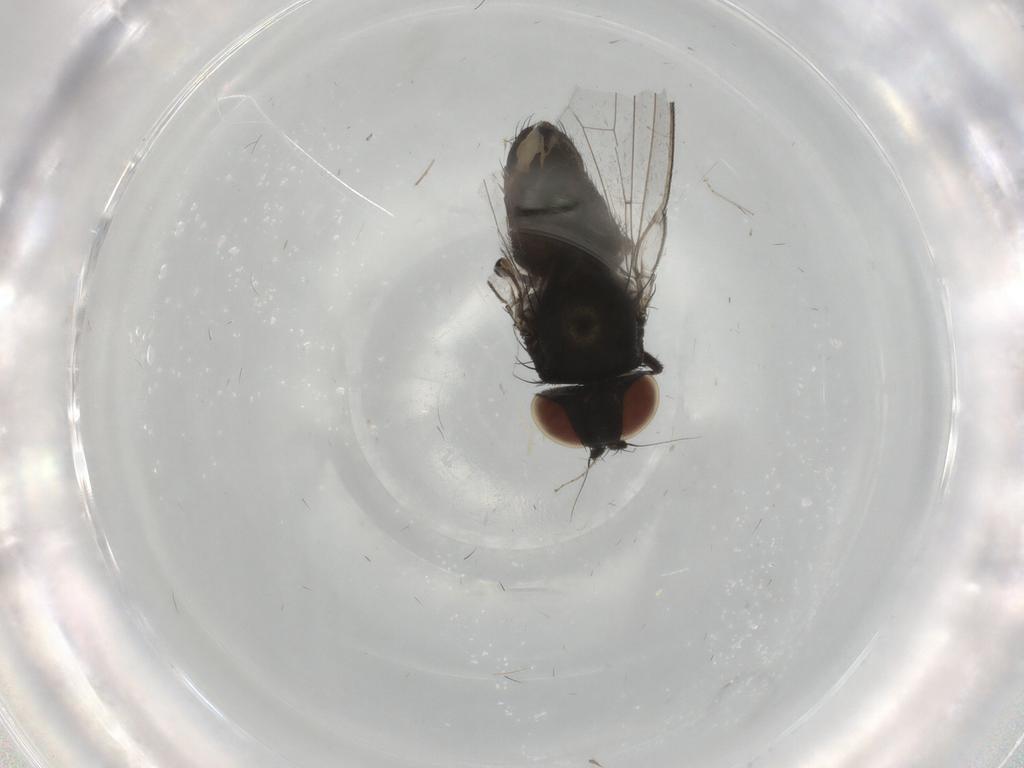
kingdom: Animalia
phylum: Arthropoda
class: Insecta
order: Diptera
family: Milichiidae
